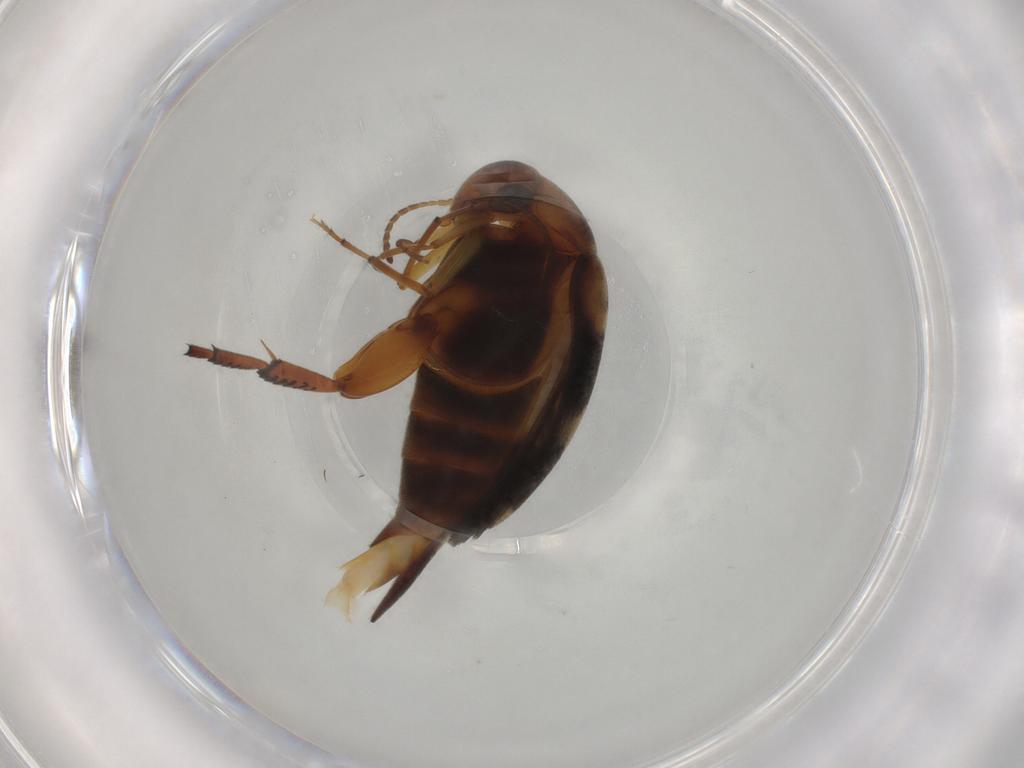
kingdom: Animalia
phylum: Arthropoda
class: Insecta
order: Coleoptera
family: Mordellidae
